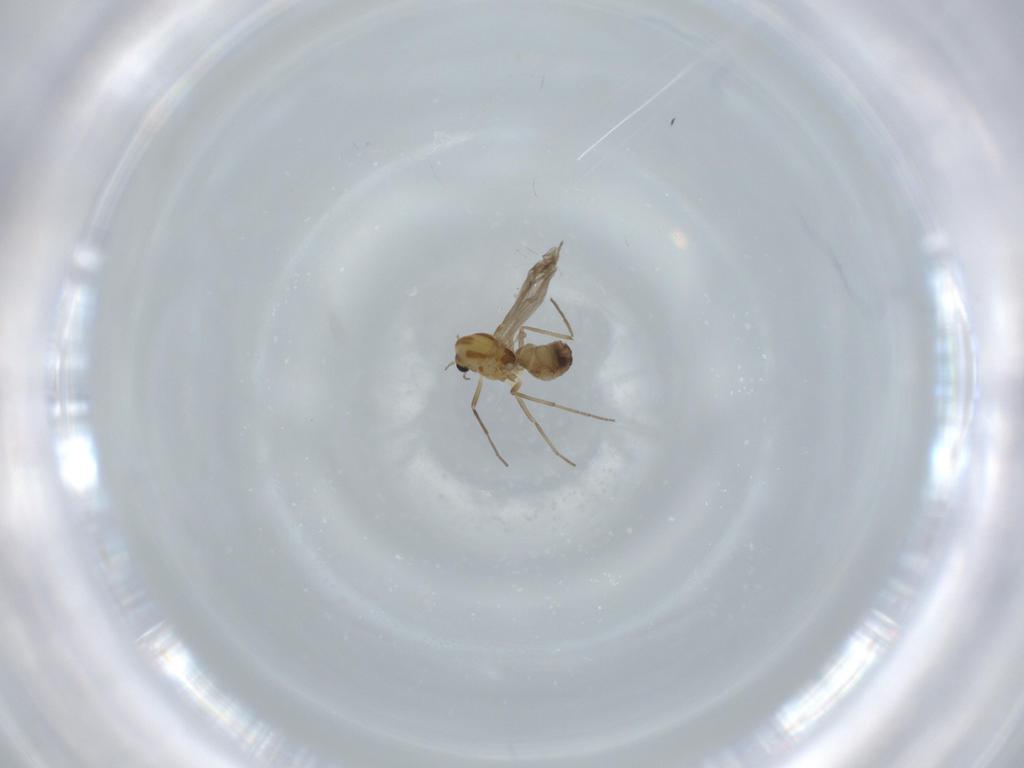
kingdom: Animalia
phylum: Arthropoda
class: Insecta
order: Diptera
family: Chironomidae
